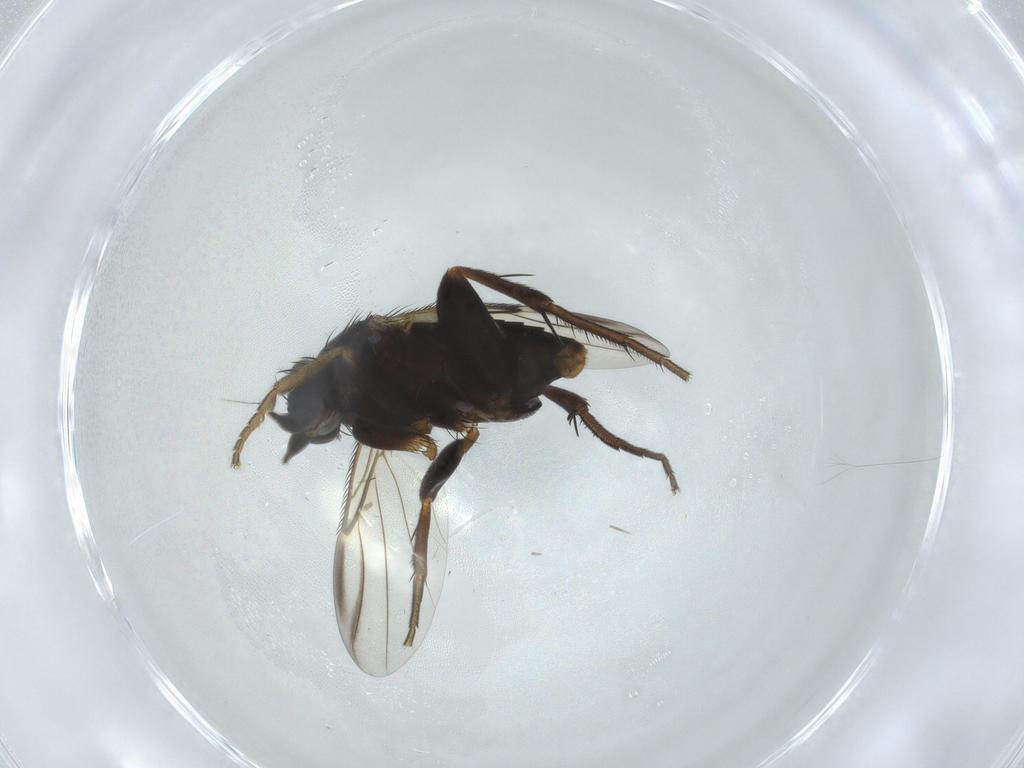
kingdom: Animalia
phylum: Arthropoda
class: Insecta
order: Diptera
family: Phoridae
